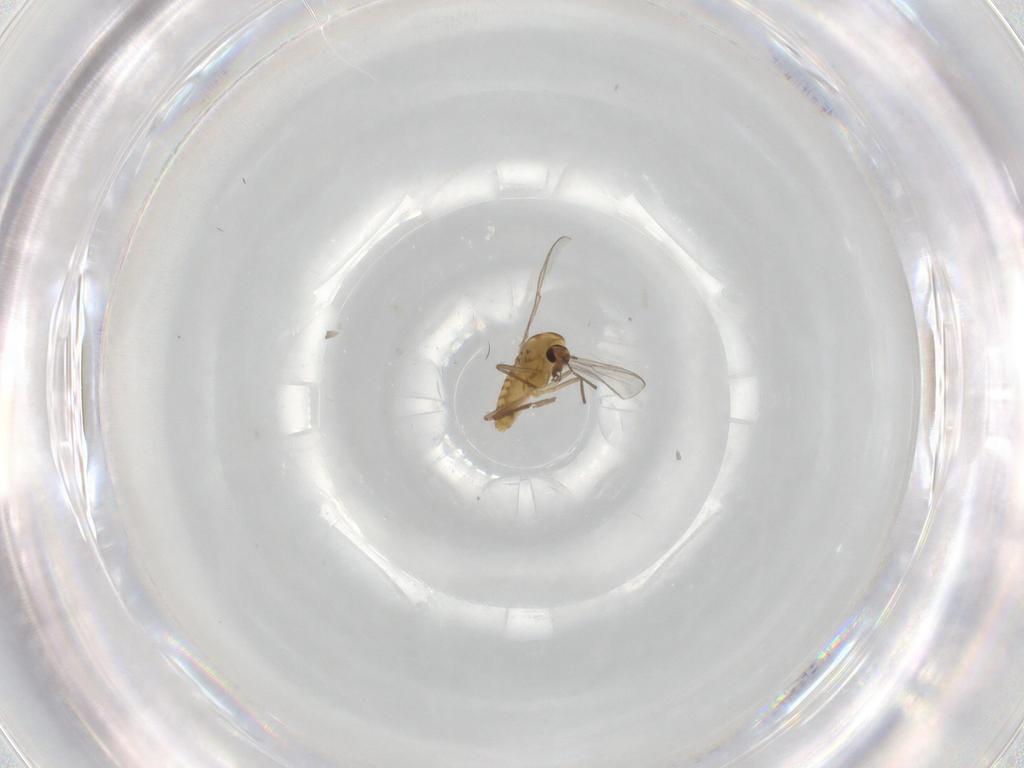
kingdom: Animalia
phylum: Arthropoda
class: Insecta
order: Diptera
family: Chironomidae
